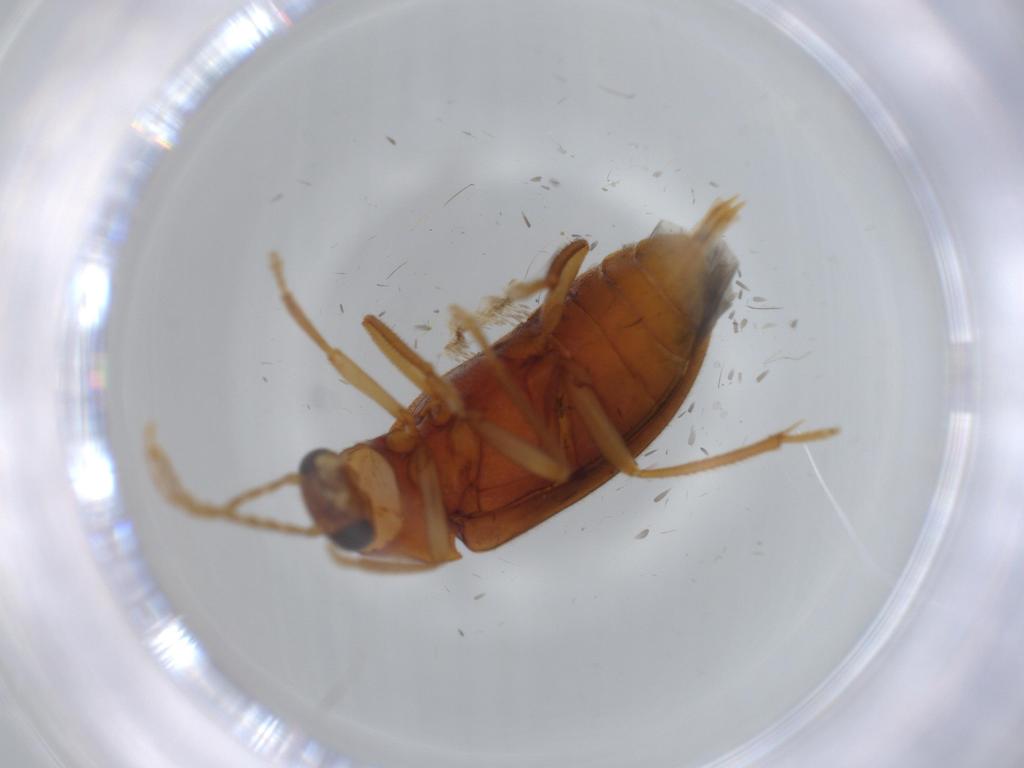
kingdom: Animalia
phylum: Arthropoda
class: Insecta
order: Coleoptera
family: Ptilodactylidae
